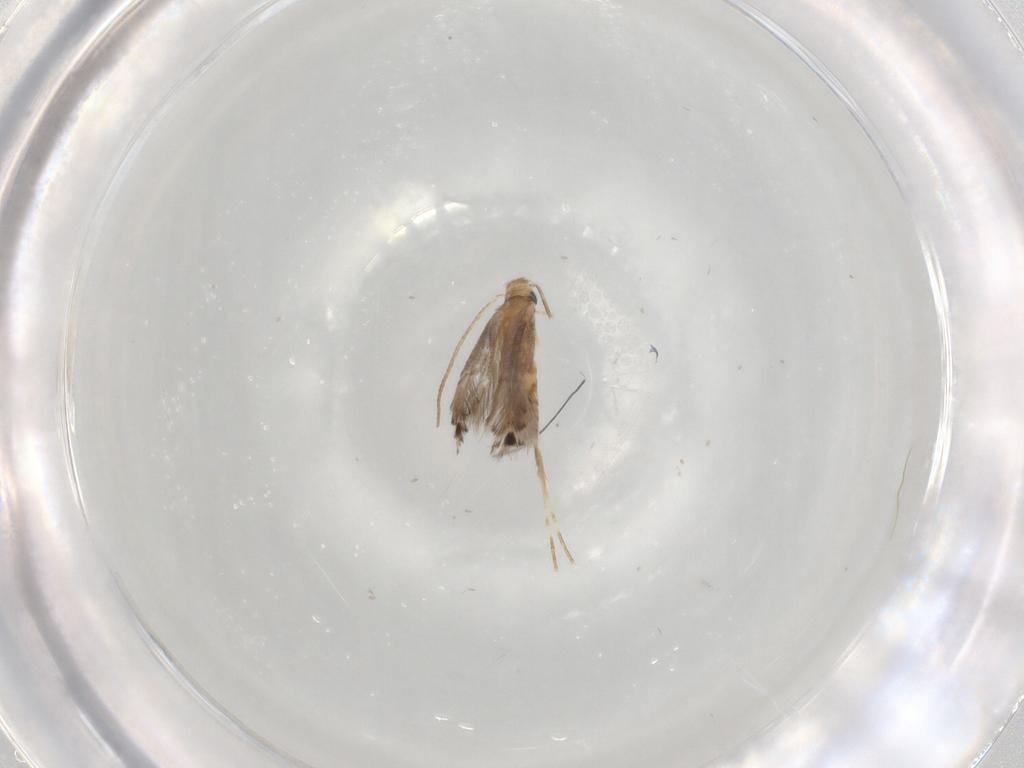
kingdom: Animalia
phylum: Arthropoda
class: Insecta
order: Lepidoptera
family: Gracillariidae
